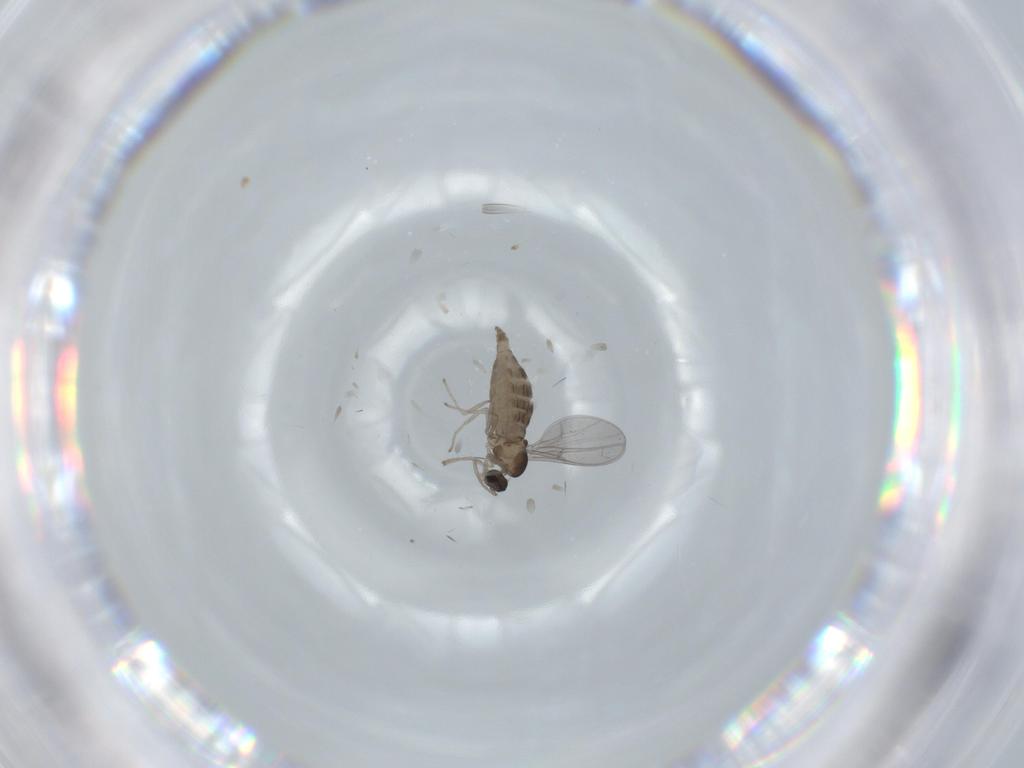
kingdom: Animalia
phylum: Arthropoda
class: Insecta
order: Diptera
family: Cecidomyiidae
